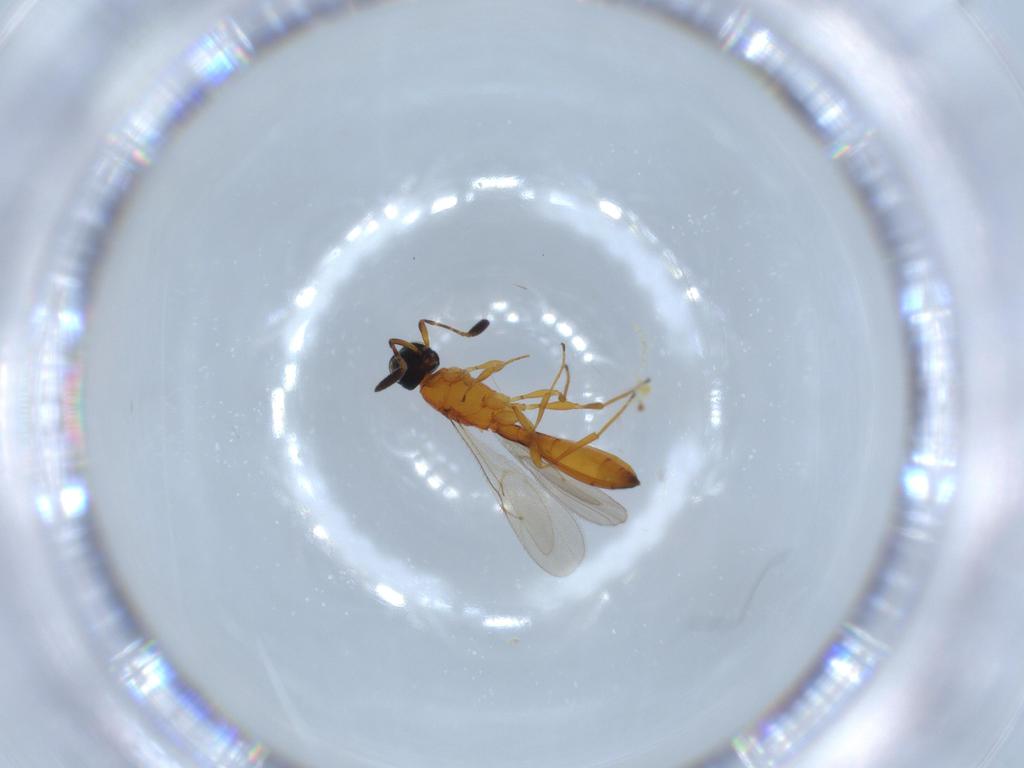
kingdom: Animalia
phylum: Arthropoda
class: Insecta
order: Hymenoptera
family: Scelionidae
